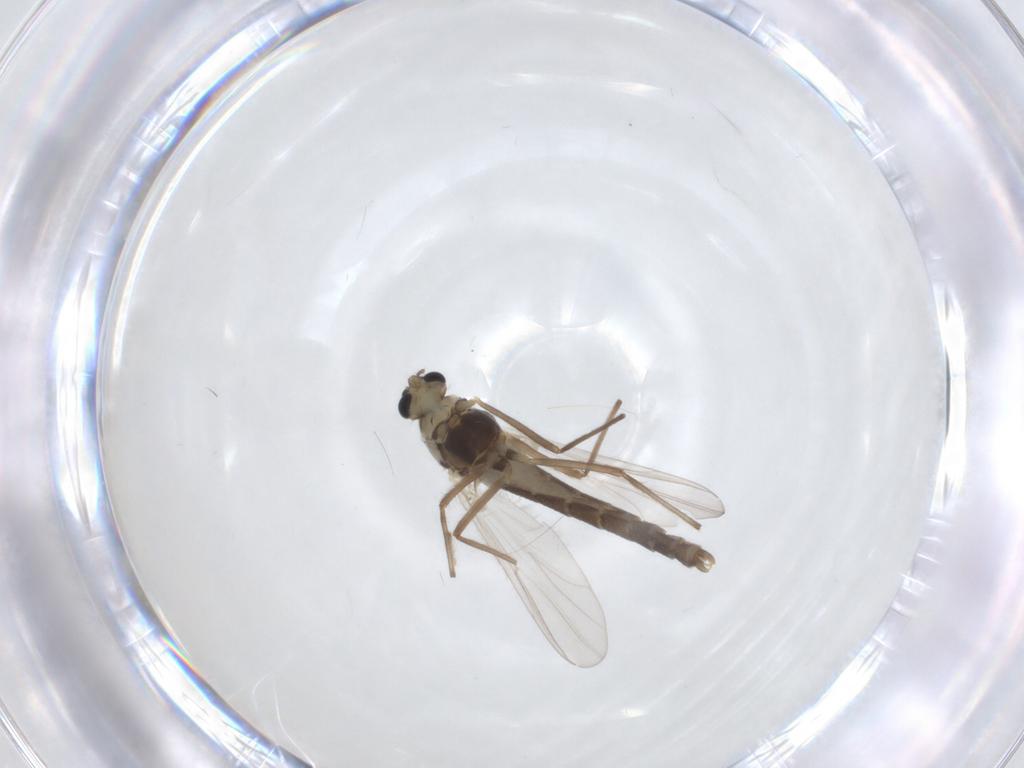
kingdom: Animalia
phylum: Arthropoda
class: Insecta
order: Diptera
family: Chironomidae
